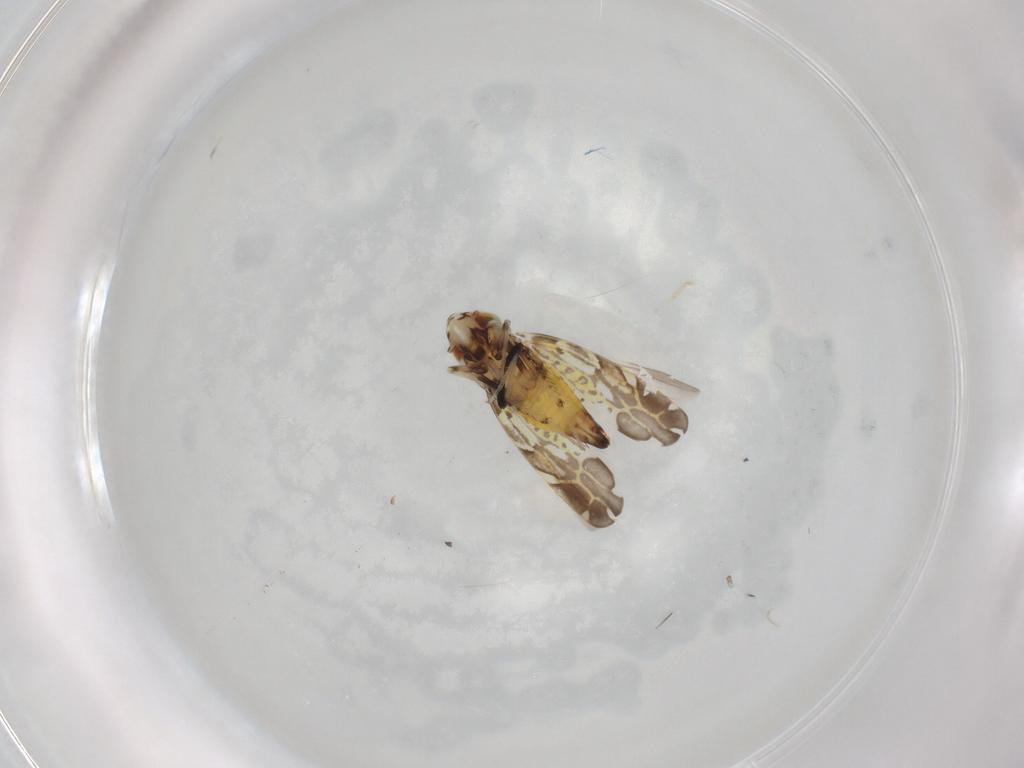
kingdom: Animalia
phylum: Arthropoda
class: Insecta
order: Hemiptera
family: Cicadellidae
